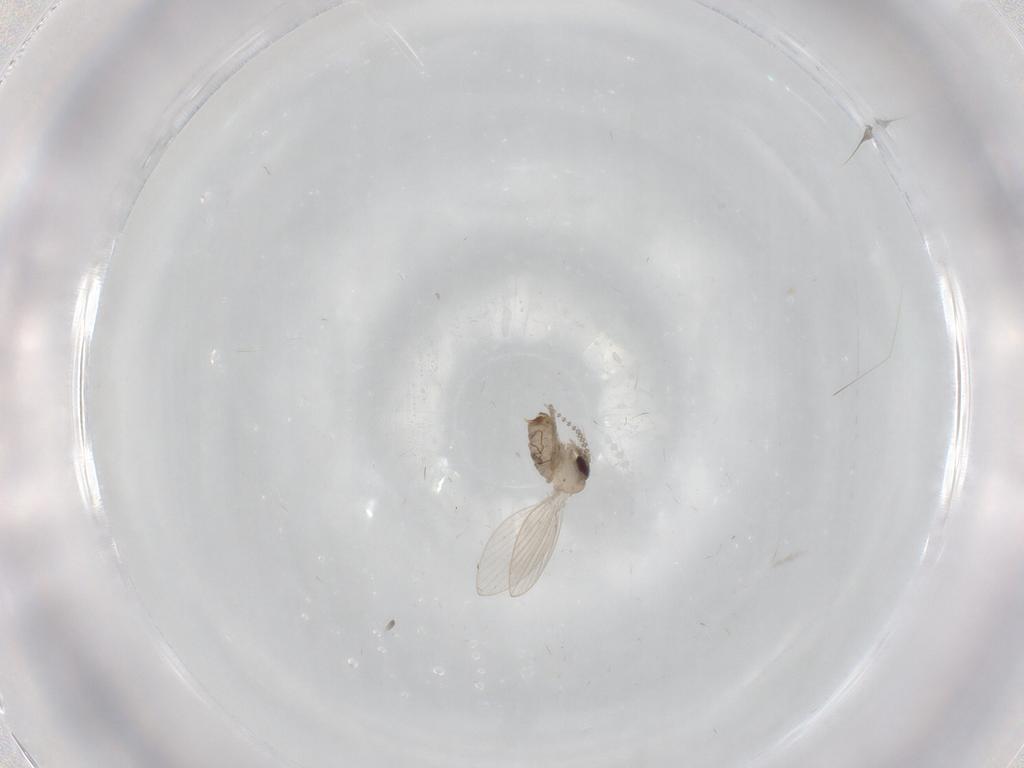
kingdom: Animalia
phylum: Arthropoda
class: Insecta
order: Diptera
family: Psychodidae
